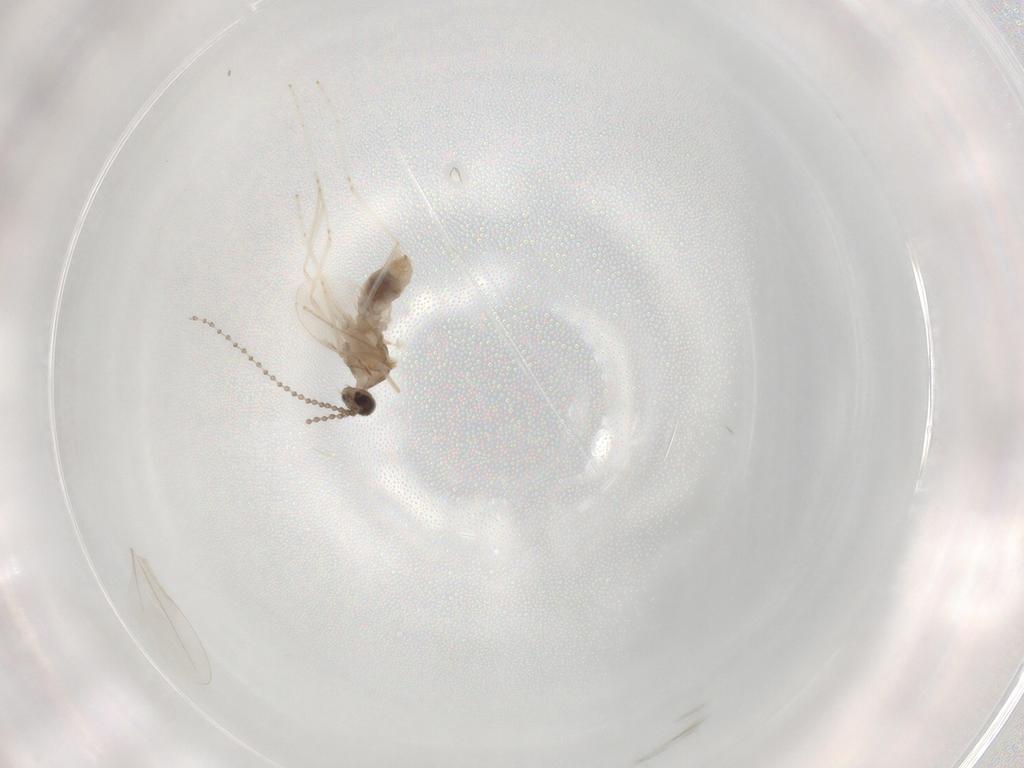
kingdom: Animalia
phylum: Arthropoda
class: Insecta
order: Diptera
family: Cecidomyiidae
